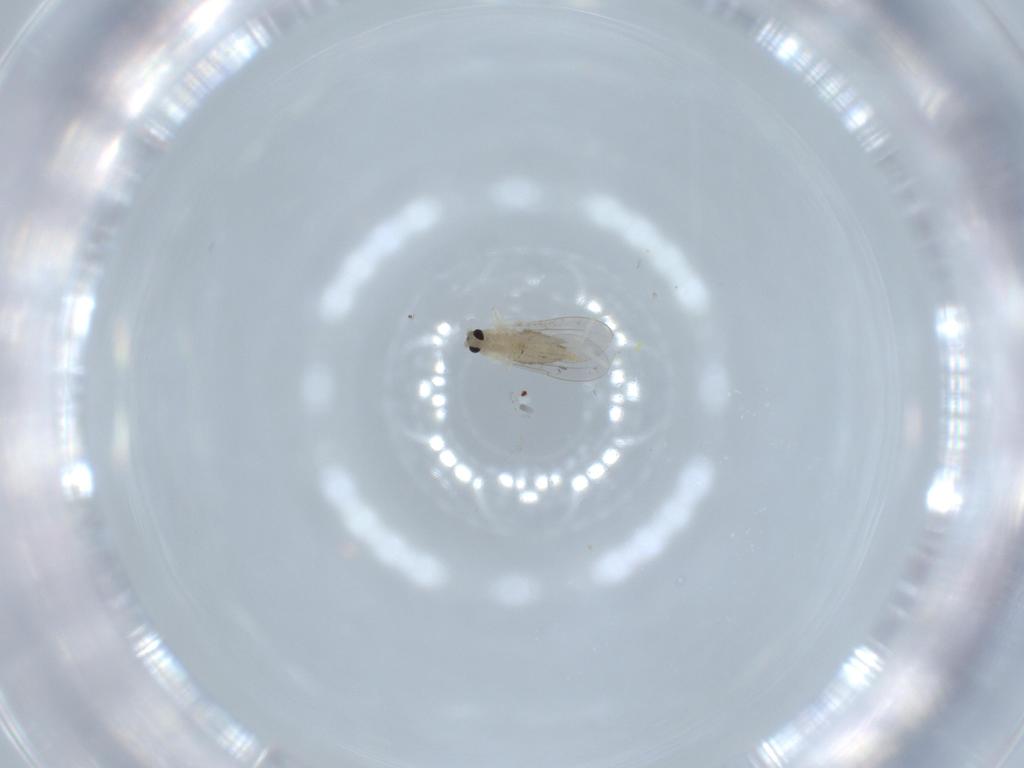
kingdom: Animalia
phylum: Arthropoda
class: Insecta
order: Diptera
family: Cecidomyiidae
